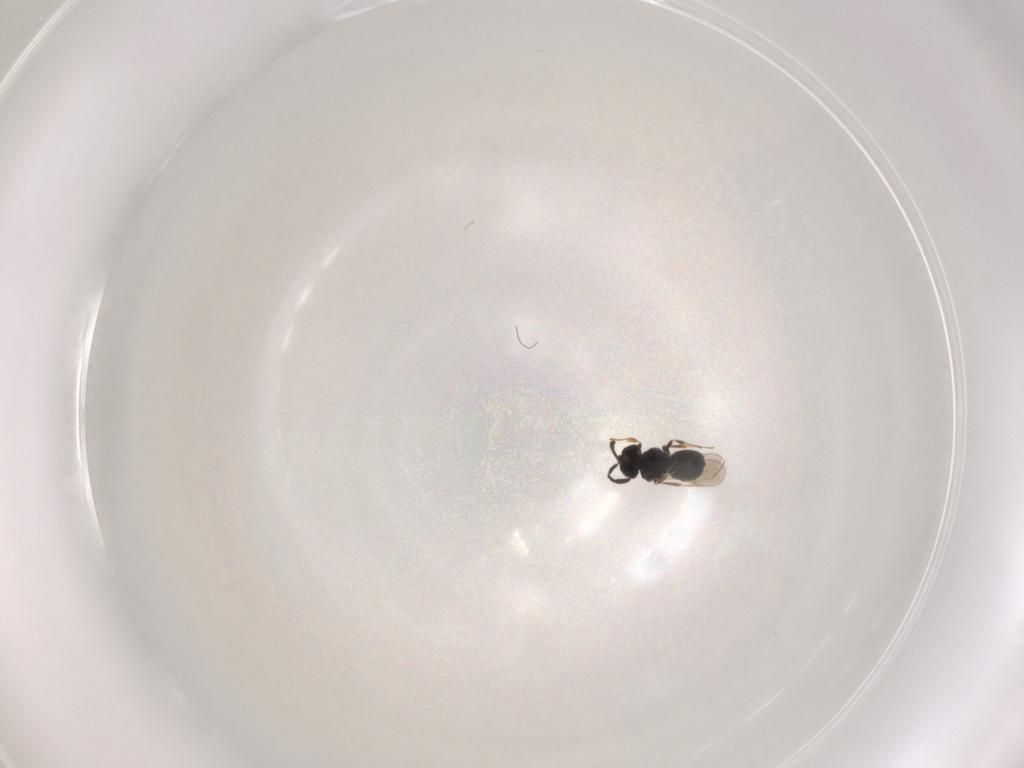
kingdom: Animalia
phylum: Arthropoda
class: Insecta
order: Hymenoptera
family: Scelionidae
